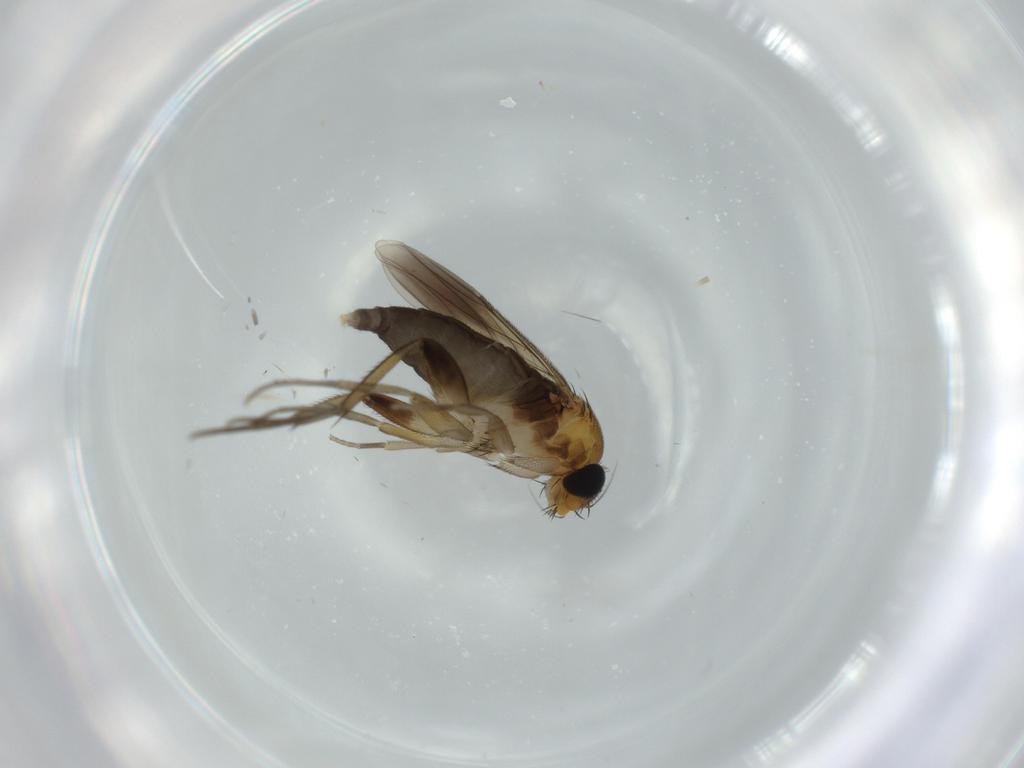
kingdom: Animalia
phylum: Arthropoda
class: Insecta
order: Diptera
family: Phoridae
